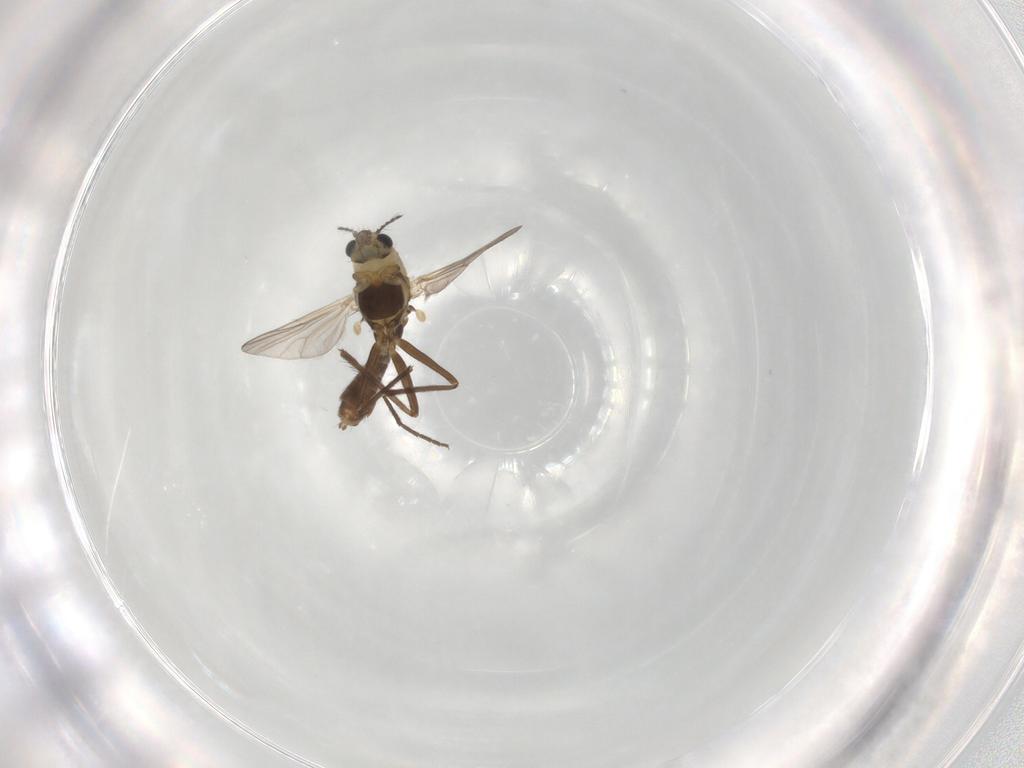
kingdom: Animalia
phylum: Arthropoda
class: Insecta
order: Diptera
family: Chironomidae
